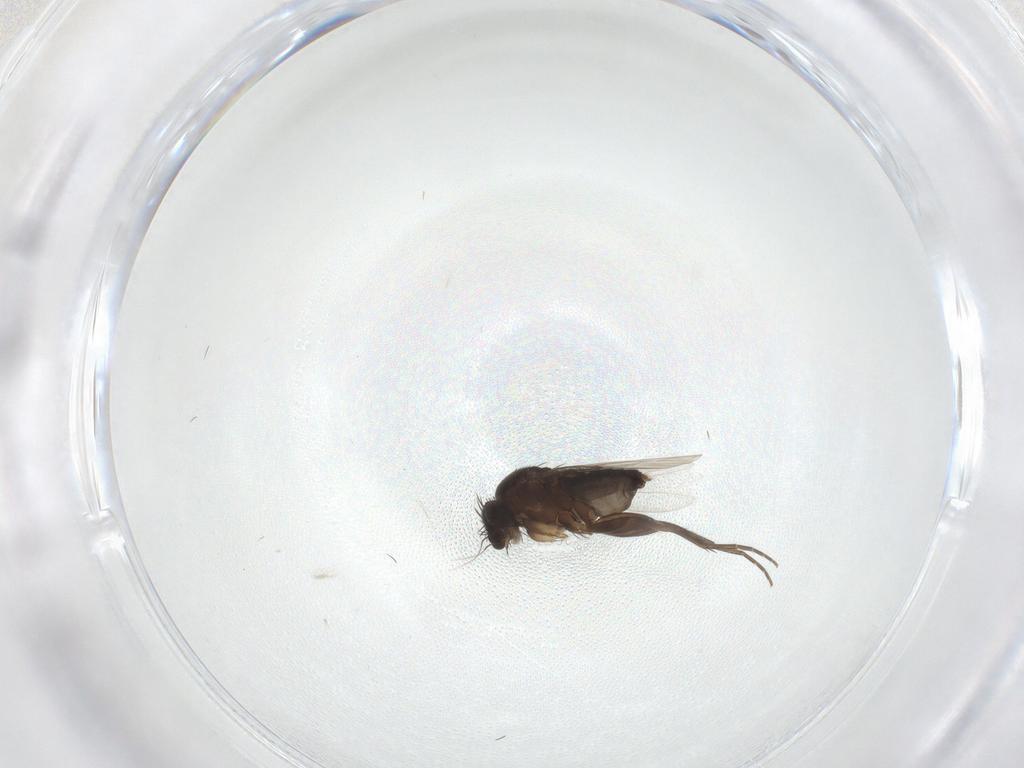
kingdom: Animalia
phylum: Arthropoda
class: Insecta
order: Diptera
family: Phoridae
